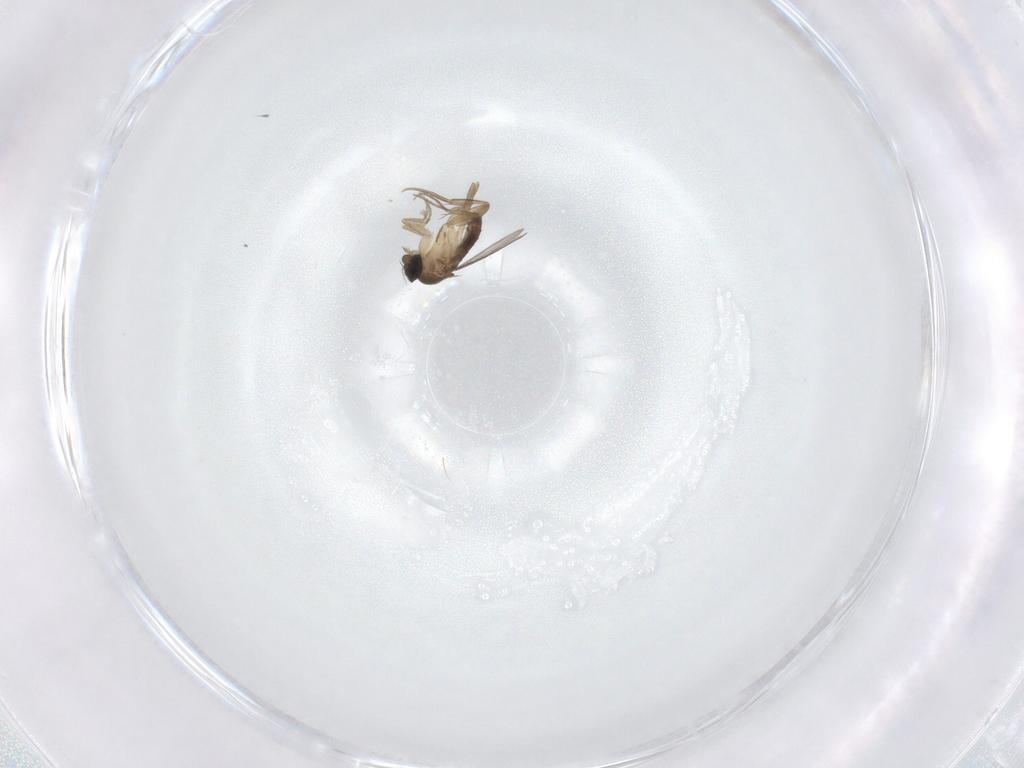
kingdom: Animalia
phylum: Arthropoda
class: Insecta
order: Diptera
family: Phoridae
